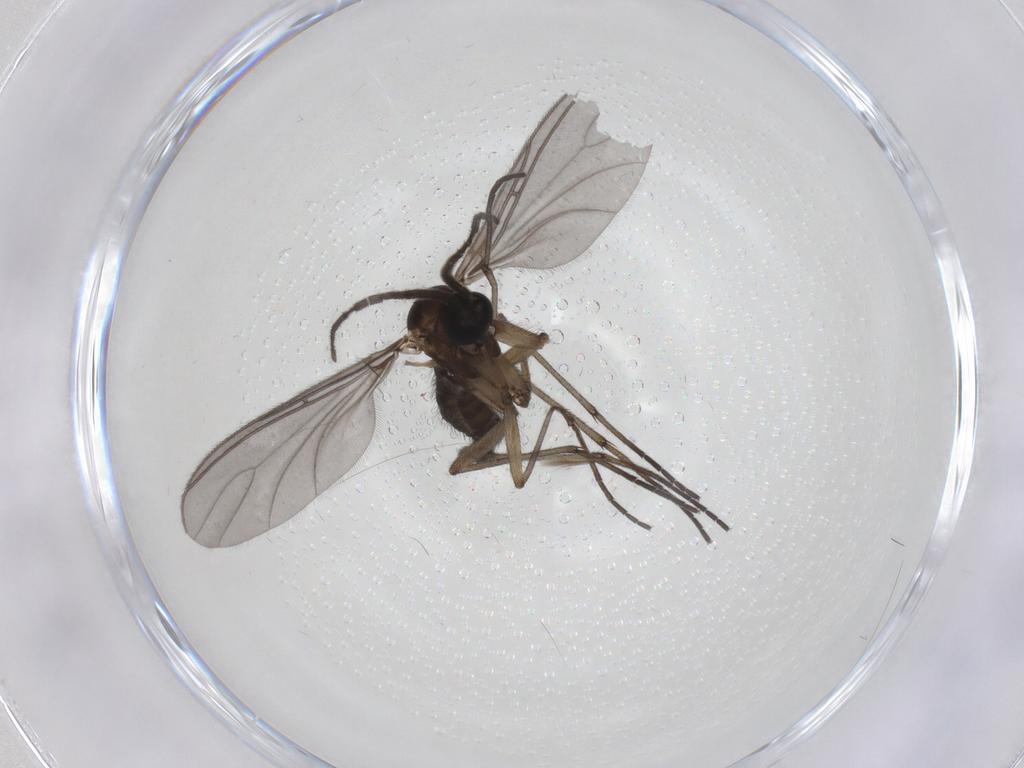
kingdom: Animalia
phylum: Arthropoda
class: Insecta
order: Diptera
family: Sciaridae
